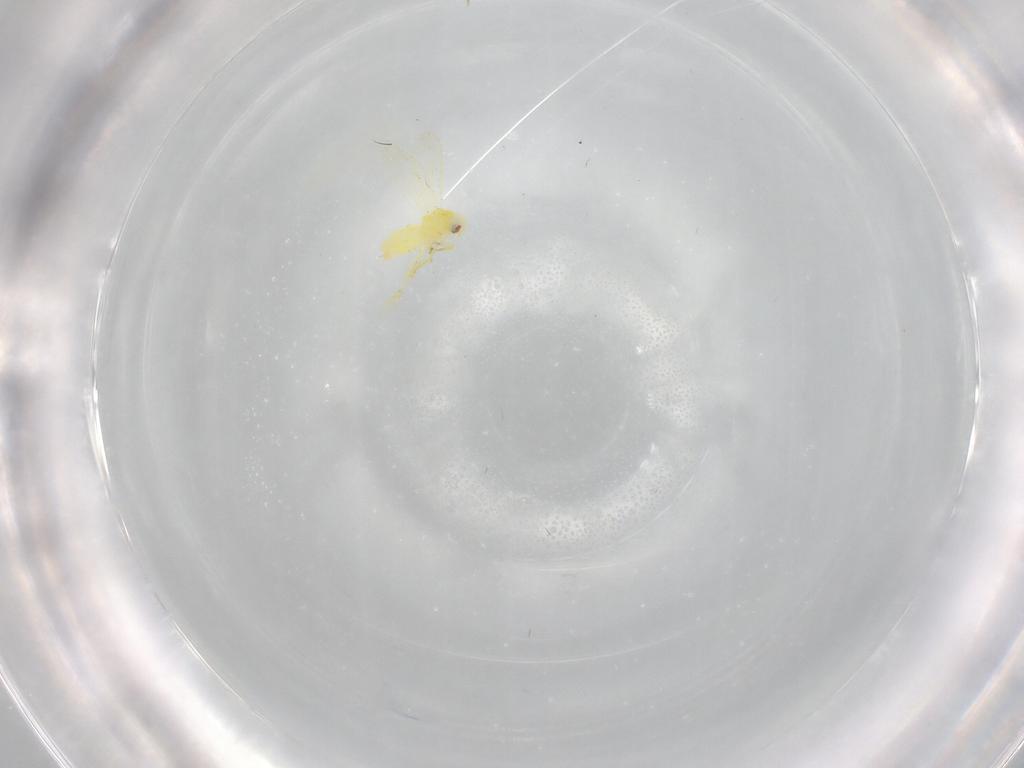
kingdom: Animalia
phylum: Arthropoda
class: Insecta
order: Hemiptera
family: Aleyrodidae
